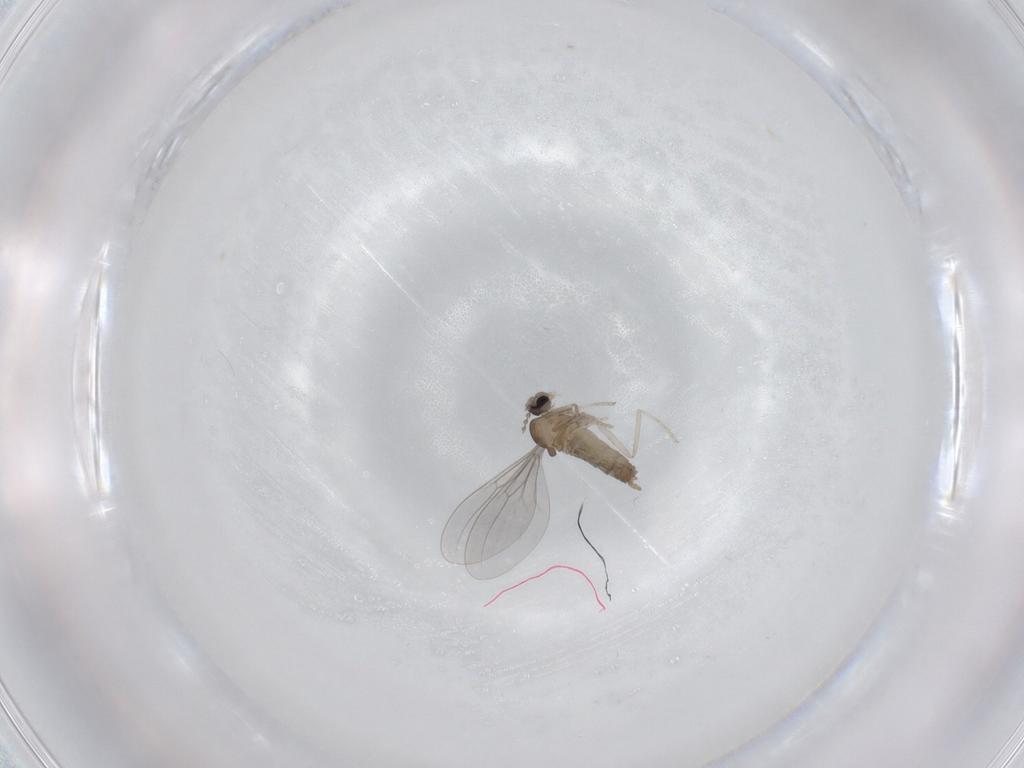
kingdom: Animalia
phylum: Arthropoda
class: Insecta
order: Diptera
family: Cecidomyiidae
